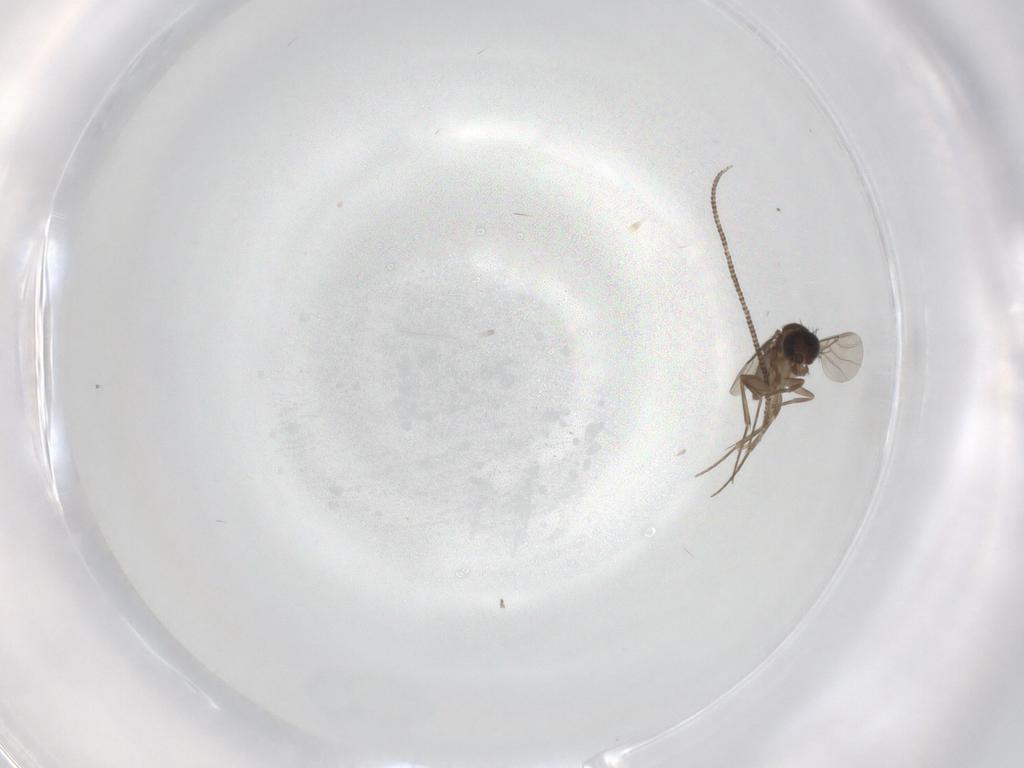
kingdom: Animalia
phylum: Arthropoda
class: Insecta
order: Diptera
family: Phoridae
